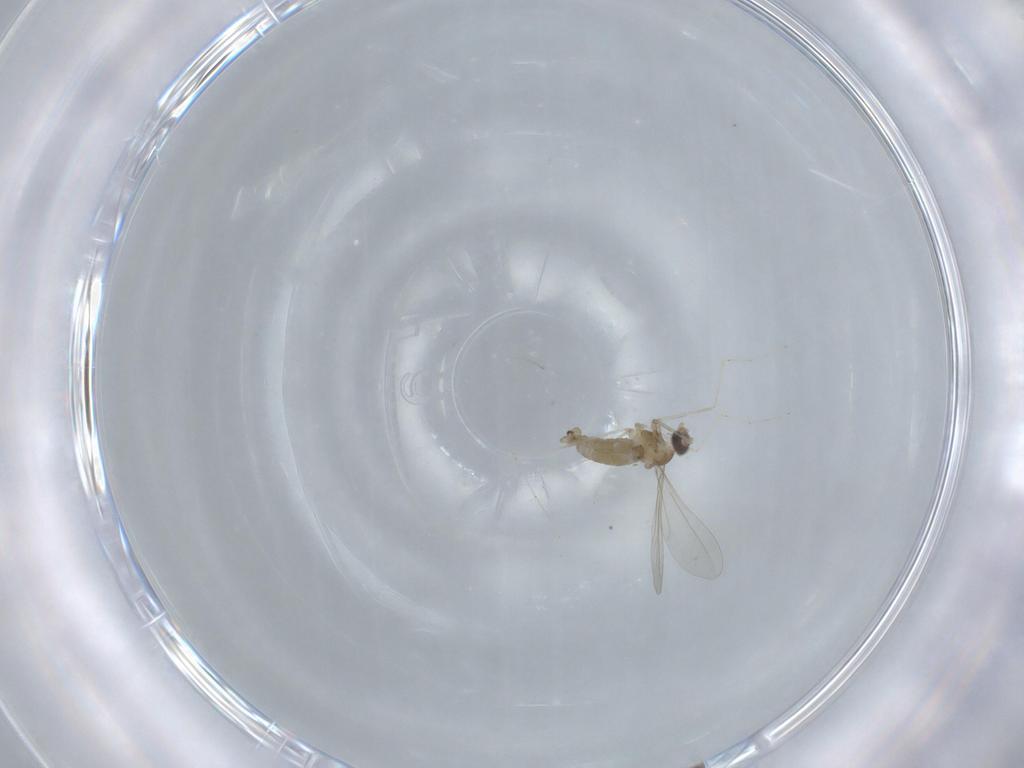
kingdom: Animalia
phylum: Arthropoda
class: Insecta
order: Diptera
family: Cecidomyiidae
